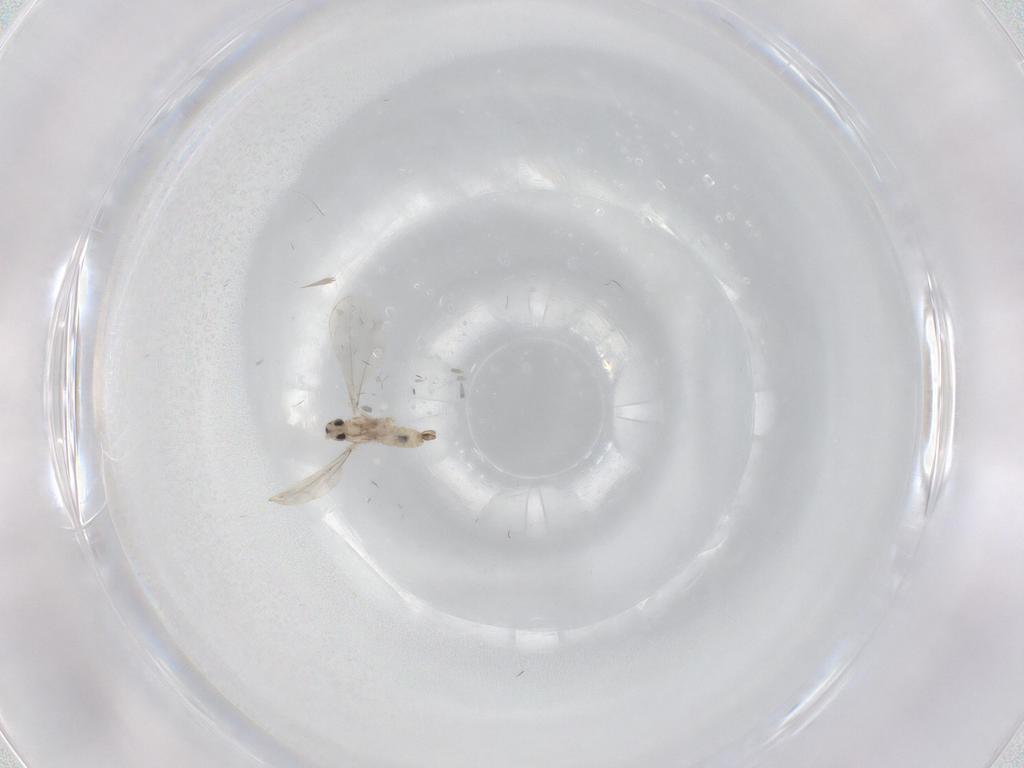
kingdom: Animalia
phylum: Arthropoda
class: Insecta
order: Diptera
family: Cecidomyiidae
